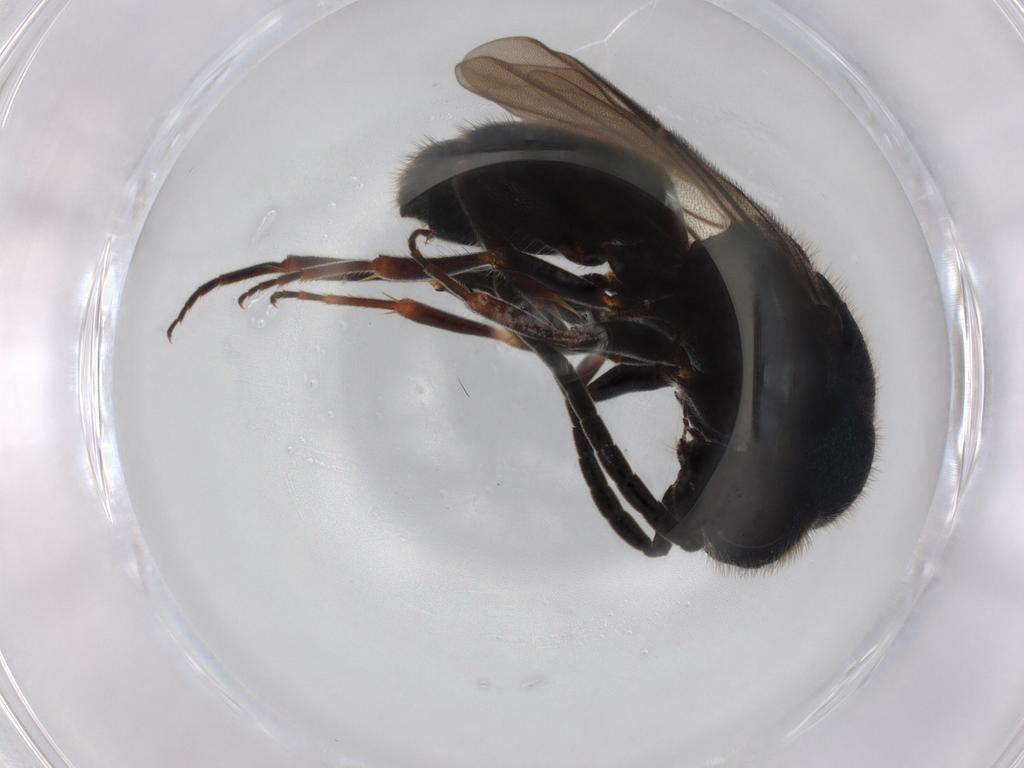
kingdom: Animalia
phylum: Arthropoda
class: Insecta
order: Hymenoptera
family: Chrysididae
